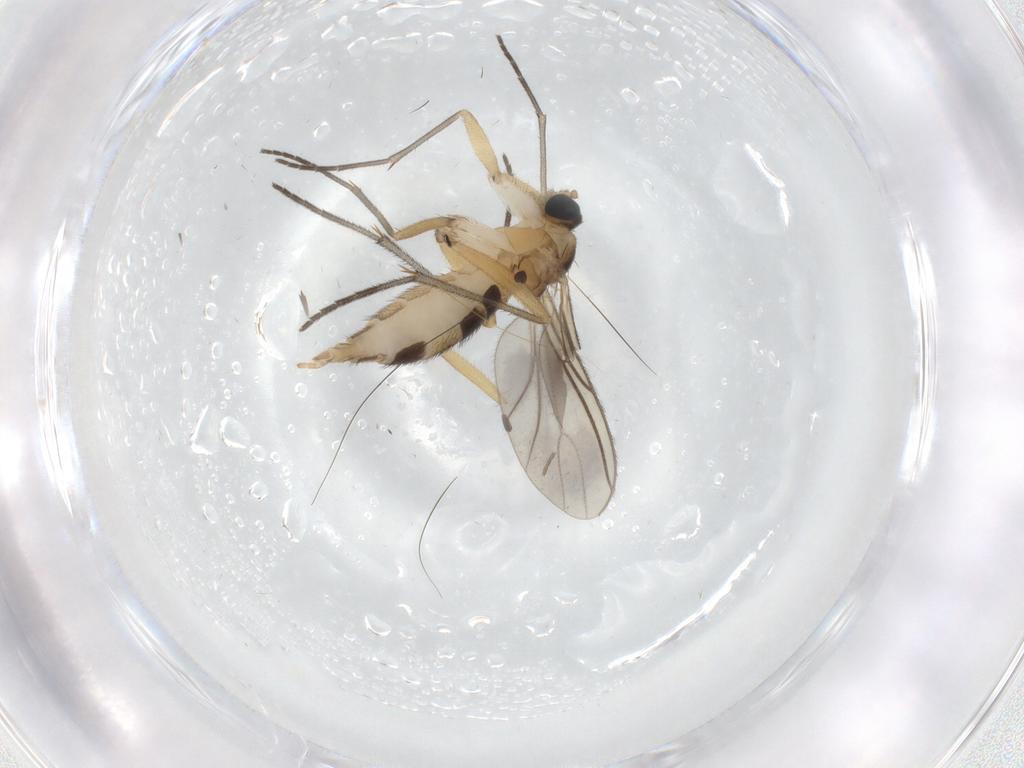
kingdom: Animalia
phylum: Arthropoda
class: Insecta
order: Diptera
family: Sciaridae
